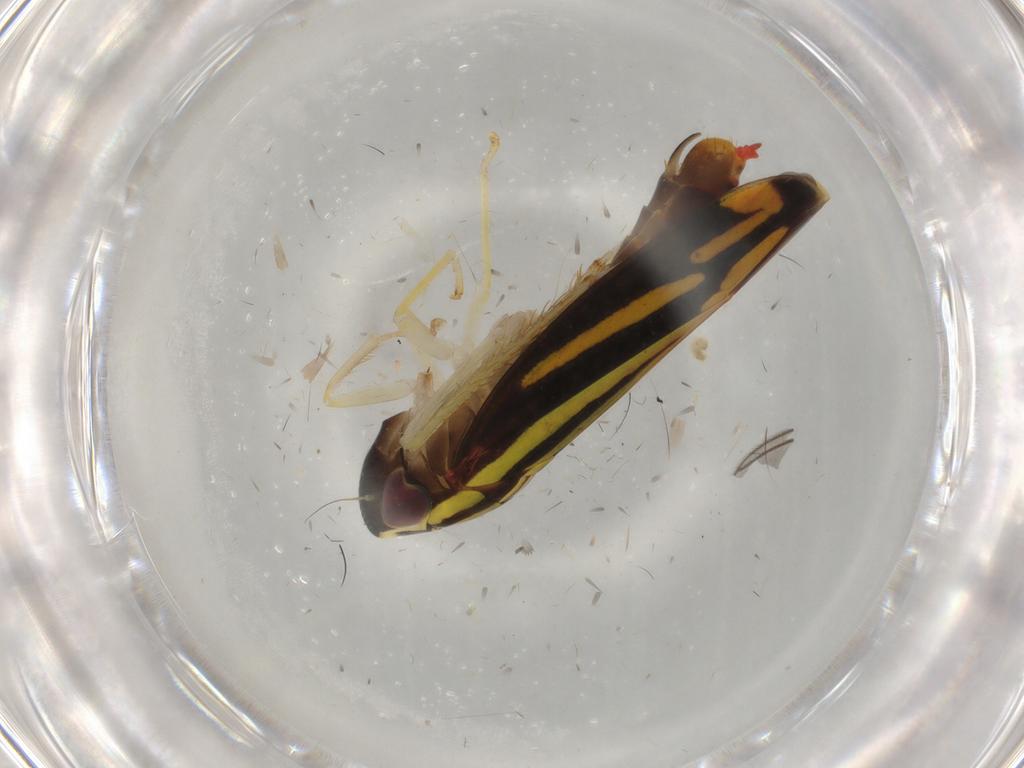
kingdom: Animalia
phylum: Arthropoda
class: Insecta
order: Hemiptera
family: Cicadellidae
